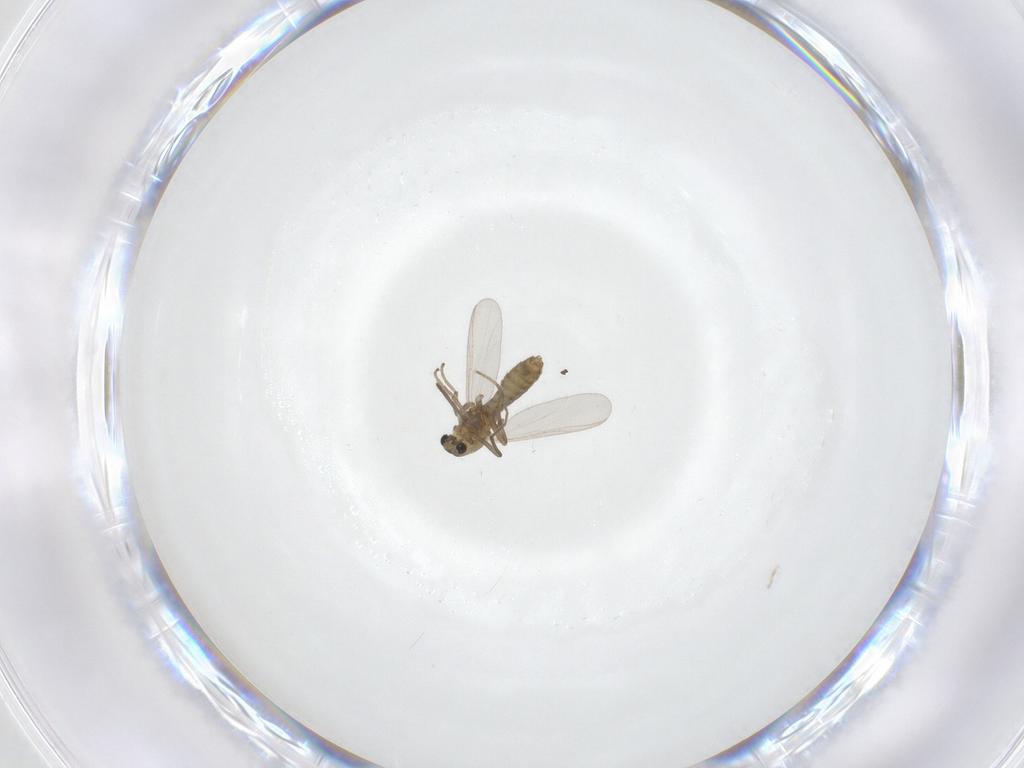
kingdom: Animalia
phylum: Arthropoda
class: Insecta
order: Diptera
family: Chironomidae
